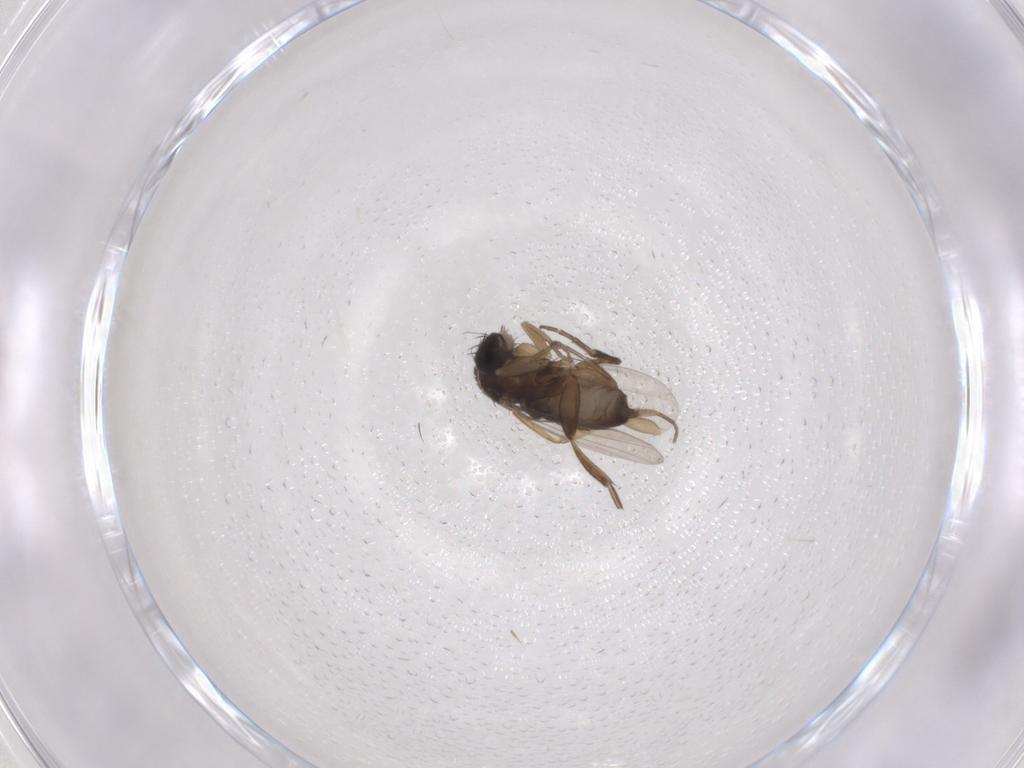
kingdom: Animalia
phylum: Arthropoda
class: Insecta
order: Diptera
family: Agromyzidae
